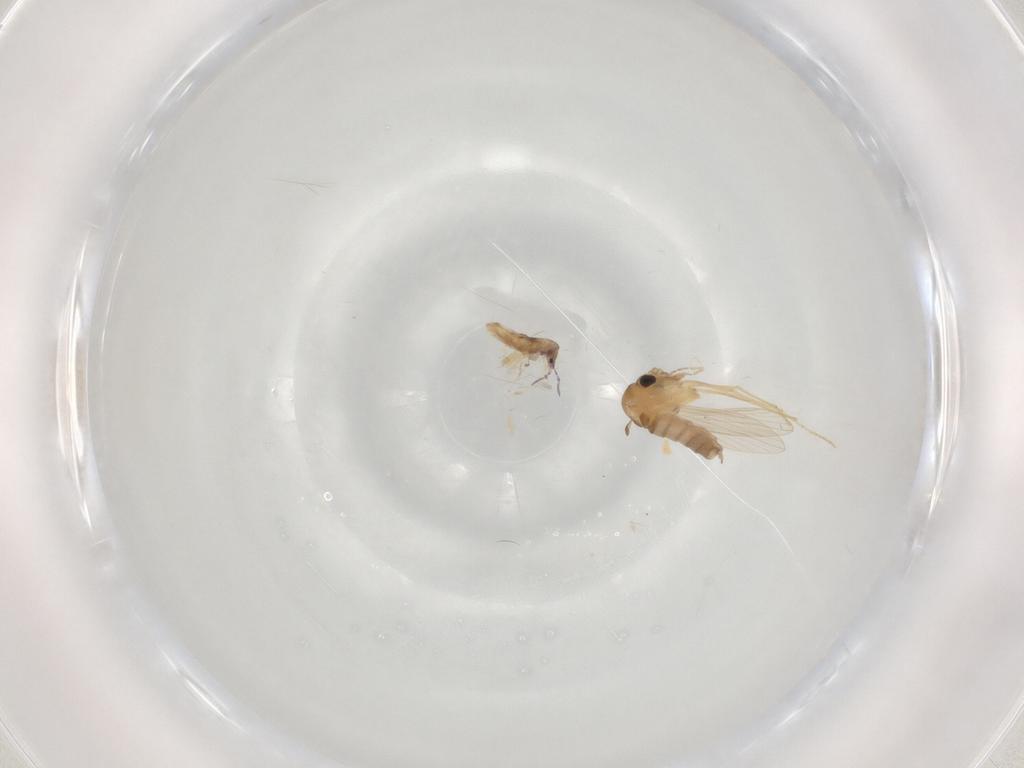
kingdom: Animalia
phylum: Arthropoda
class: Insecta
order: Diptera
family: Psychodidae
